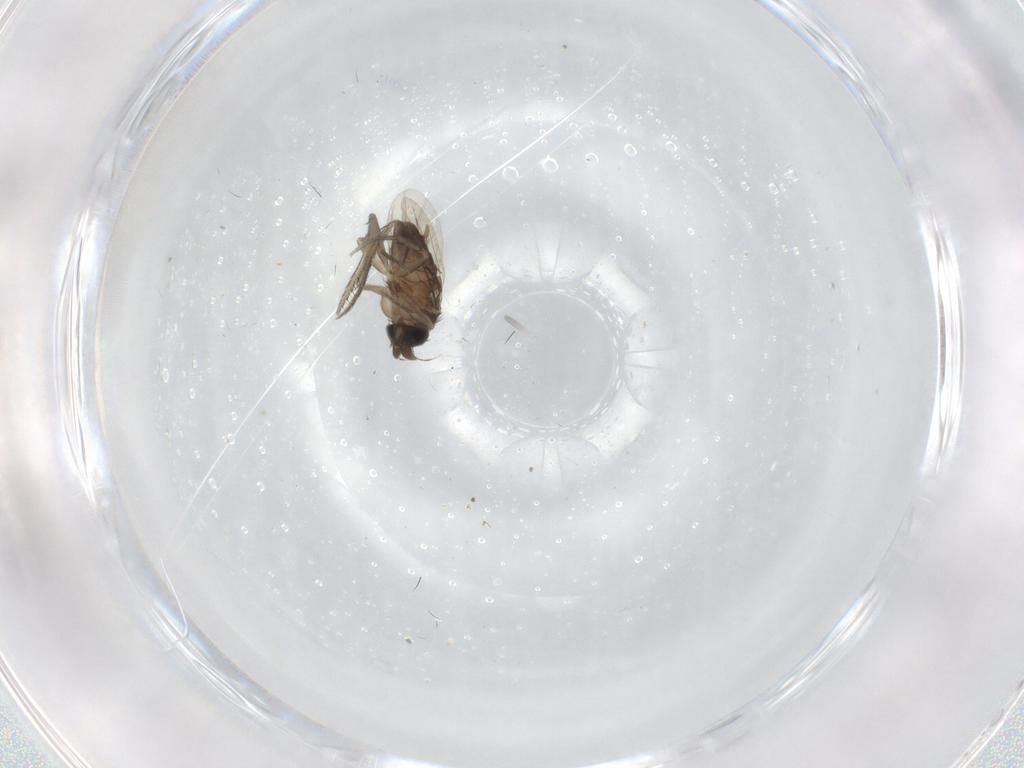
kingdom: Animalia
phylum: Arthropoda
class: Insecta
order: Diptera
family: Phoridae
